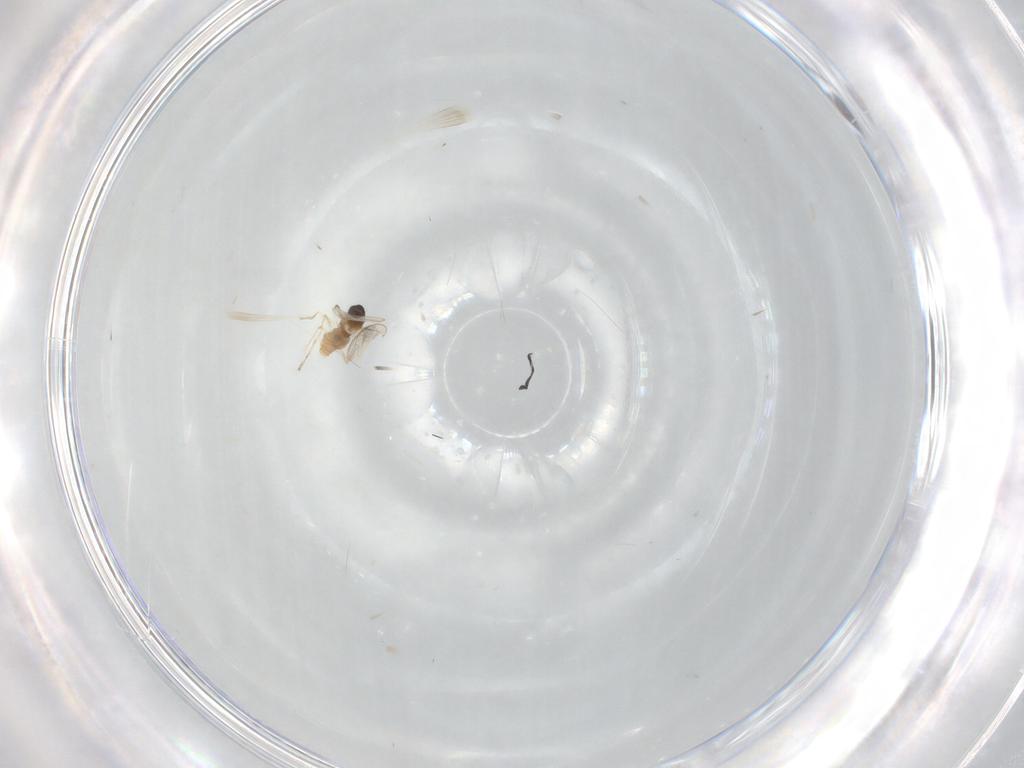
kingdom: Animalia
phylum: Arthropoda
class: Insecta
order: Diptera
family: Cecidomyiidae
